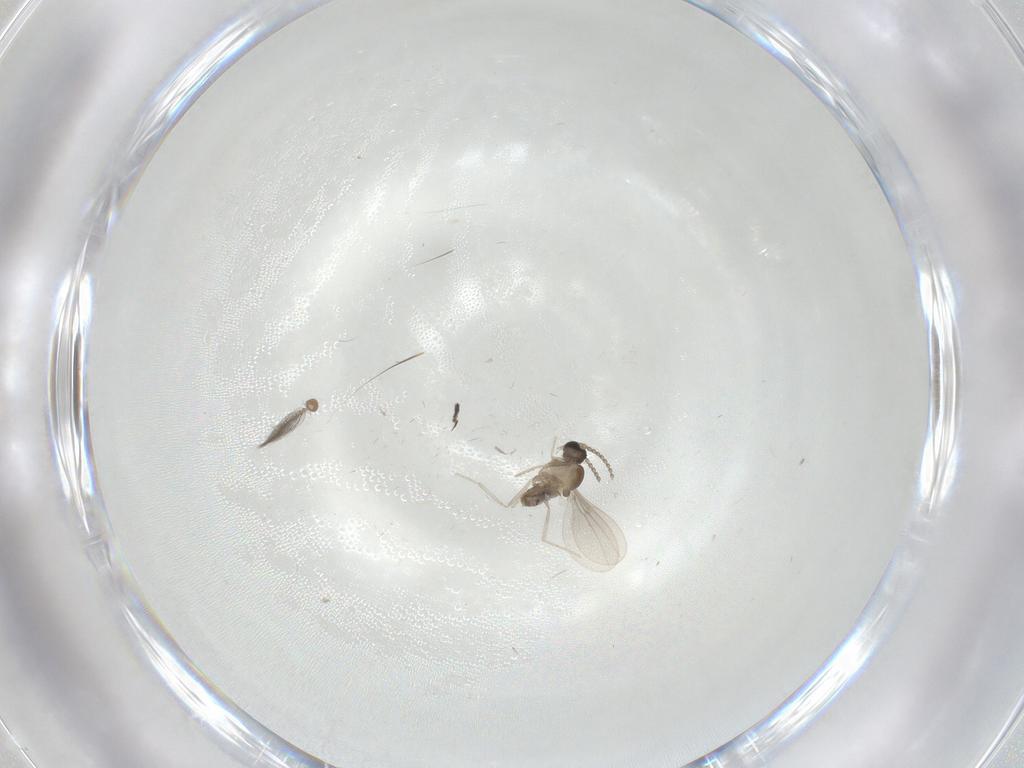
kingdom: Animalia
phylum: Arthropoda
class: Insecta
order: Diptera
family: Cecidomyiidae
